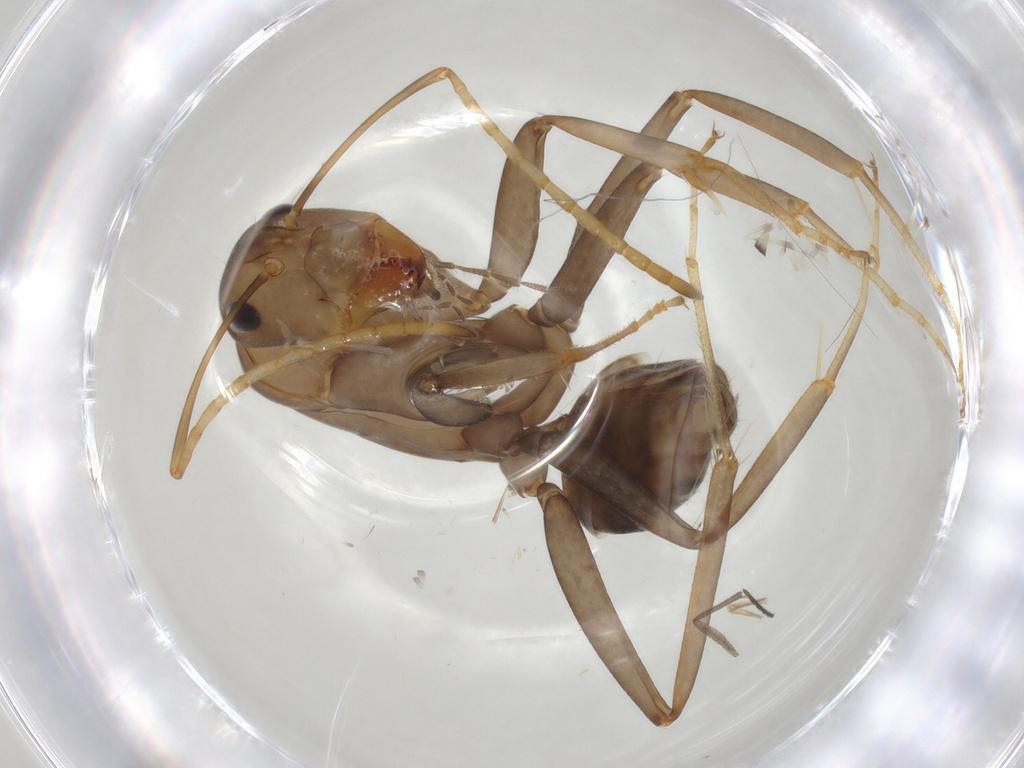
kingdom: Animalia
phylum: Arthropoda
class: Insecta
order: Hymenoptera
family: Formicidae
